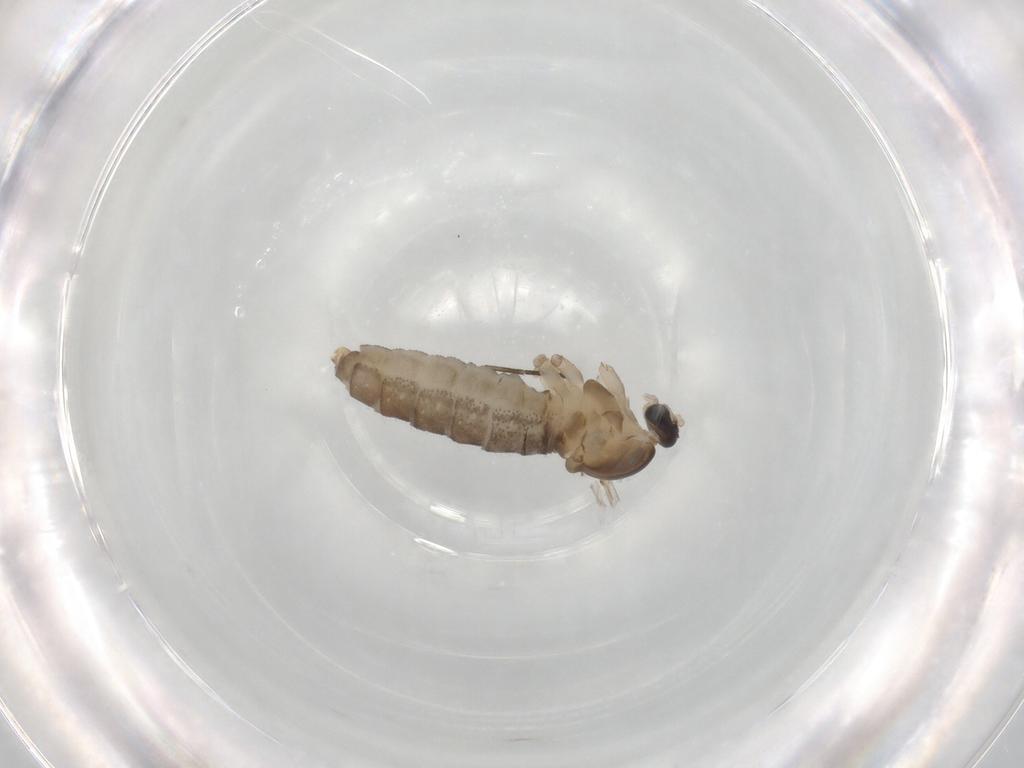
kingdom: Animalia
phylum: Arthropoda
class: Insecta
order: Diptera
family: Cecidomyiidae
